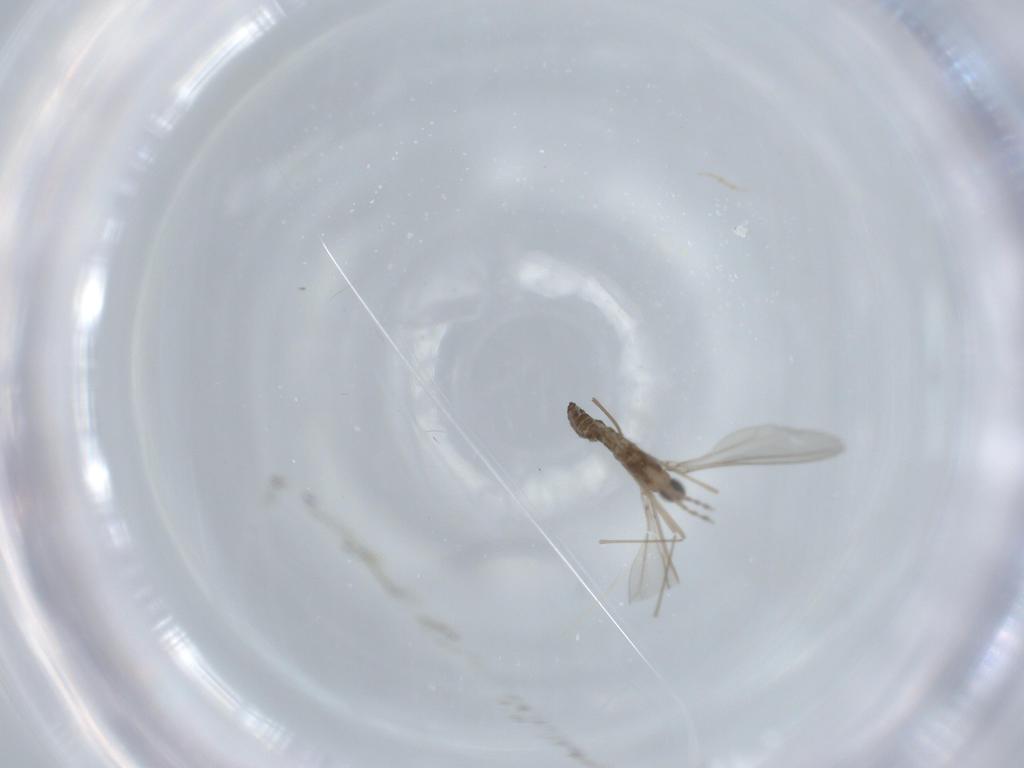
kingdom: Animalia
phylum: Arthropoda
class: Insecta
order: Diptera
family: Cecidomyiidae
